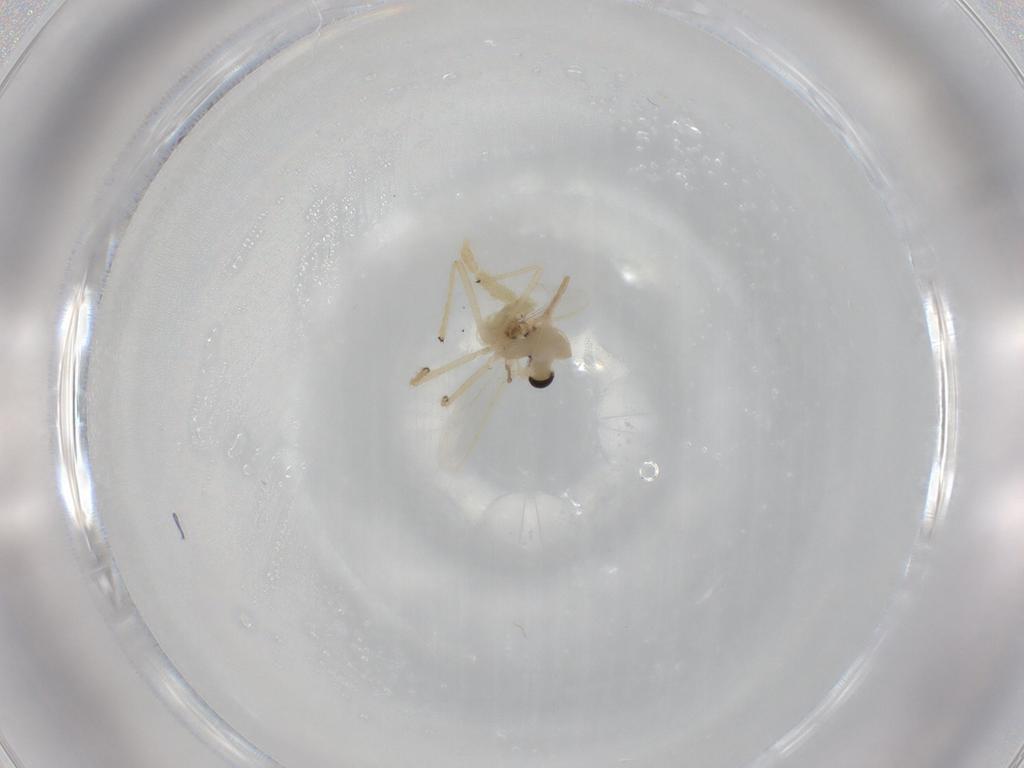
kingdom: Animalia
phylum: Arthropoda
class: Insecta
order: Diptera
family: Chironomidae
